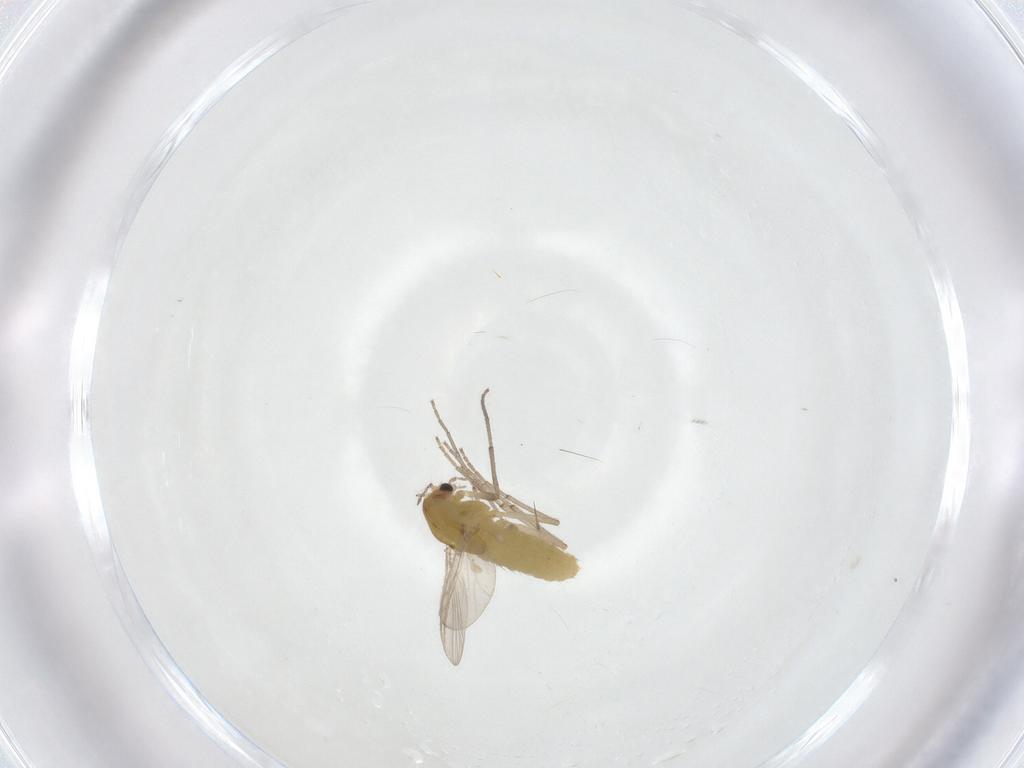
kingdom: Animalia
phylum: Arthropoda
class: Insecta
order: Diptera
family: Chironomidae
